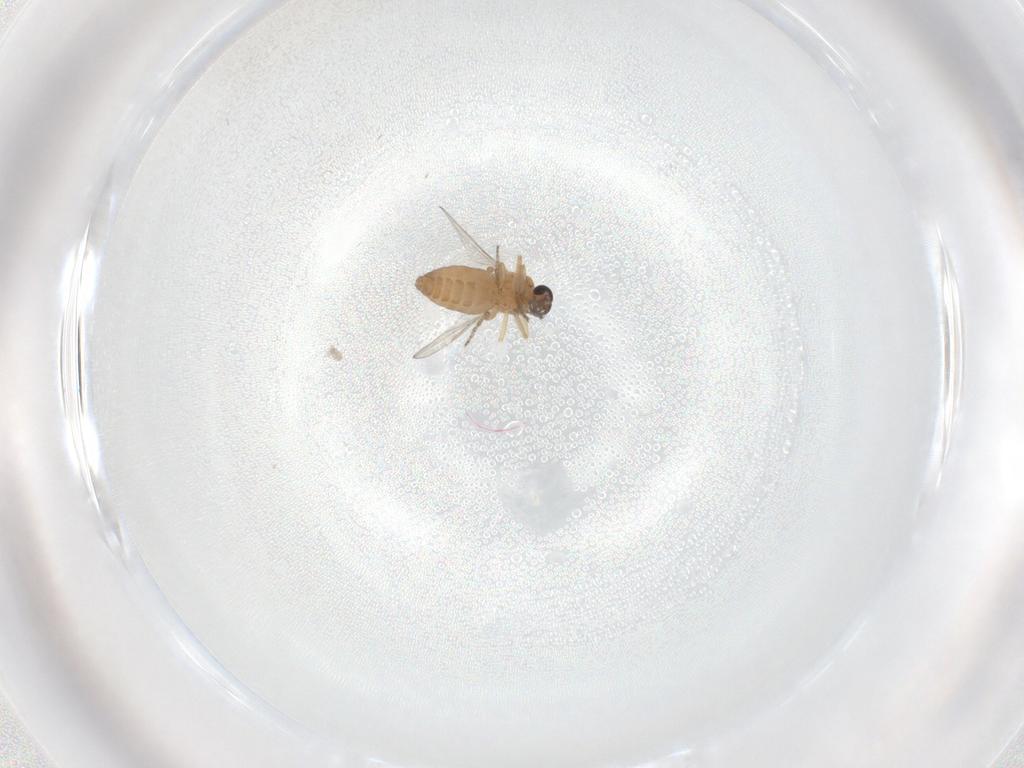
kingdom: Animalia
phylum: Arthropoda
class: Insecta
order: Diptera
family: Ceratopogonidae
